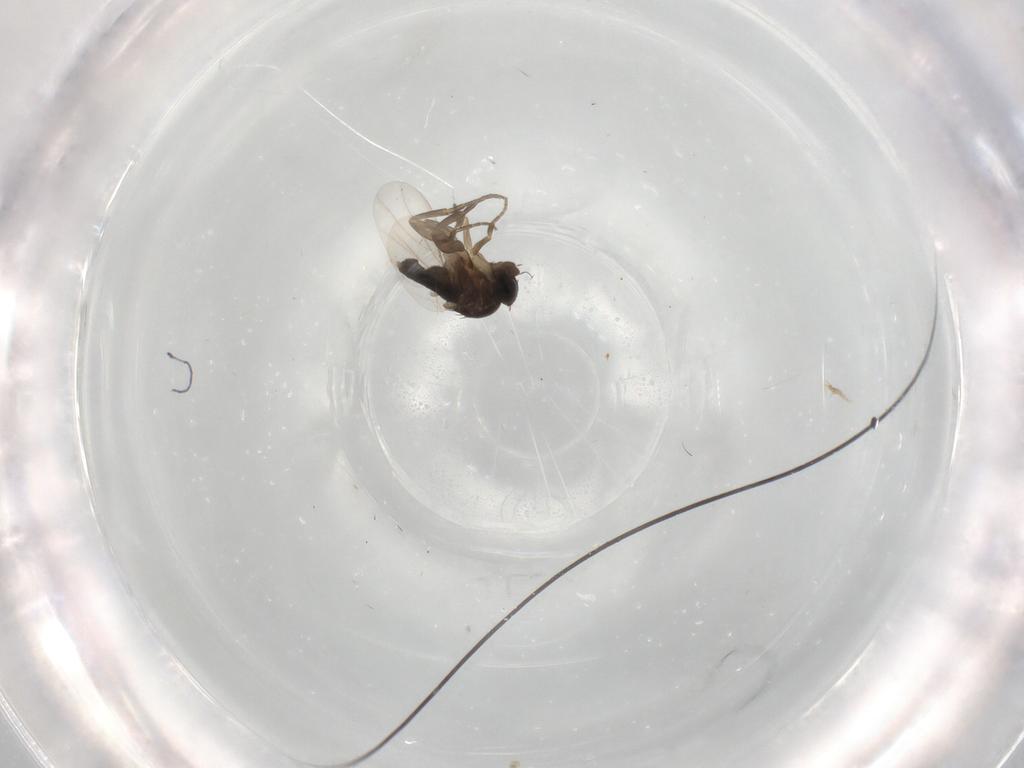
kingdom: Animalia
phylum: Arthropoda
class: Insecta
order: Diptera
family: Phoridae
